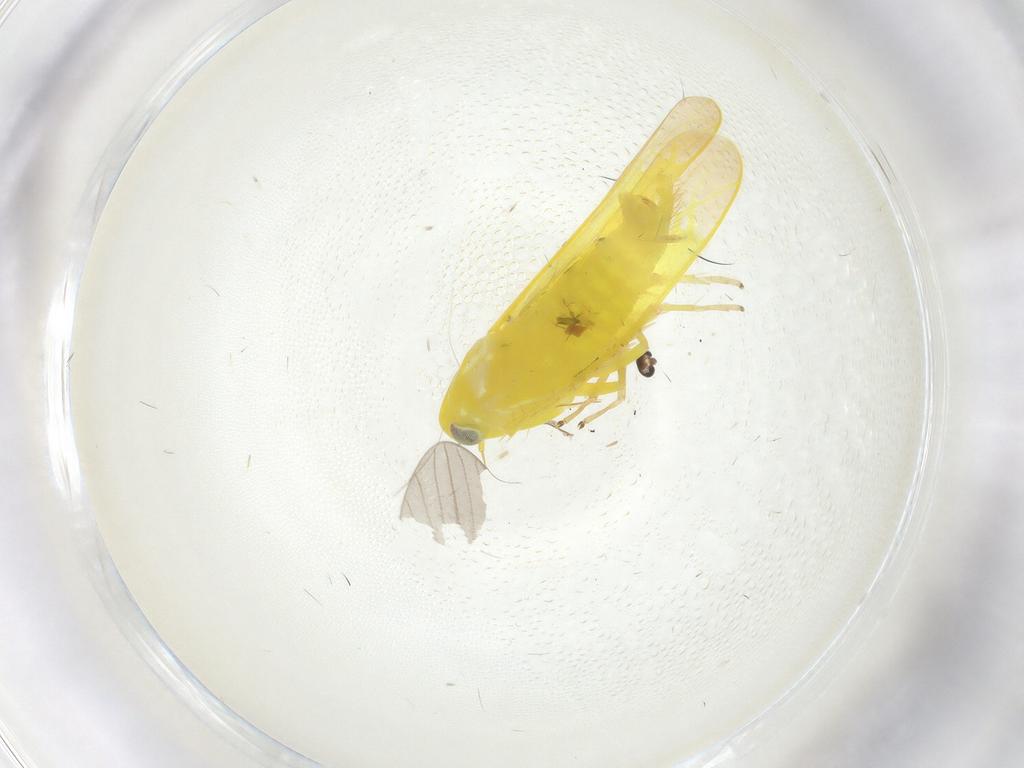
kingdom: Animalia
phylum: Arthropoda
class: Insecta
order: Hemiptera
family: Cicadellidae
